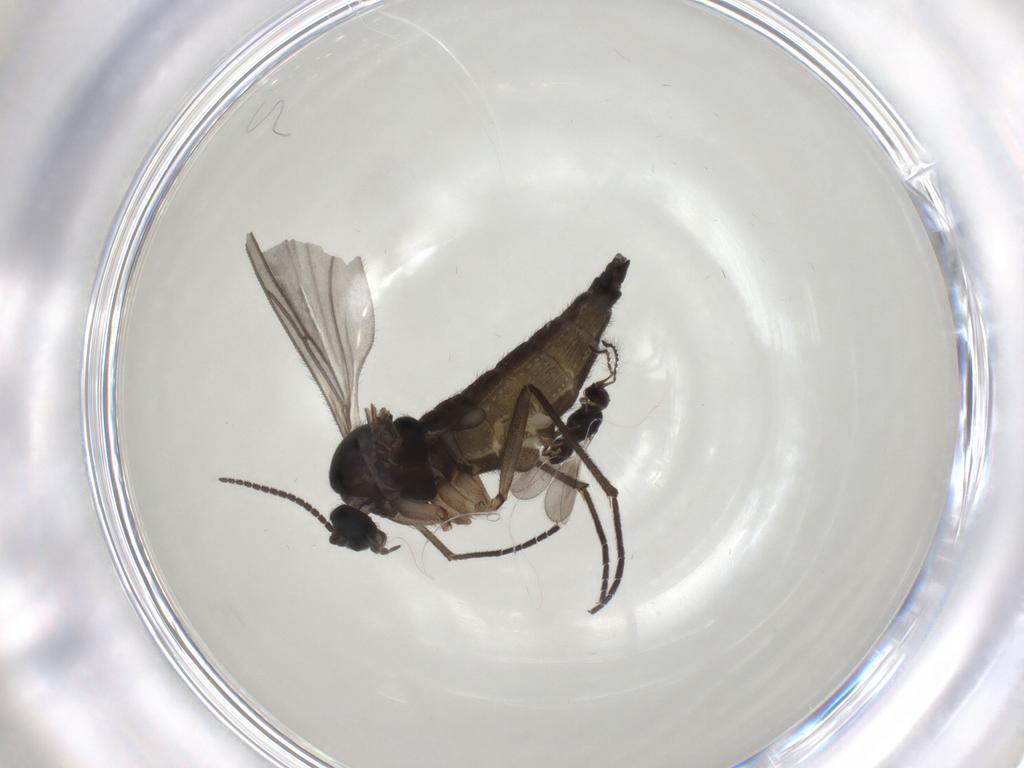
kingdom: Animalia
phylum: Arthropoda
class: Insecta
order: Diptera
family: Sciaridae
